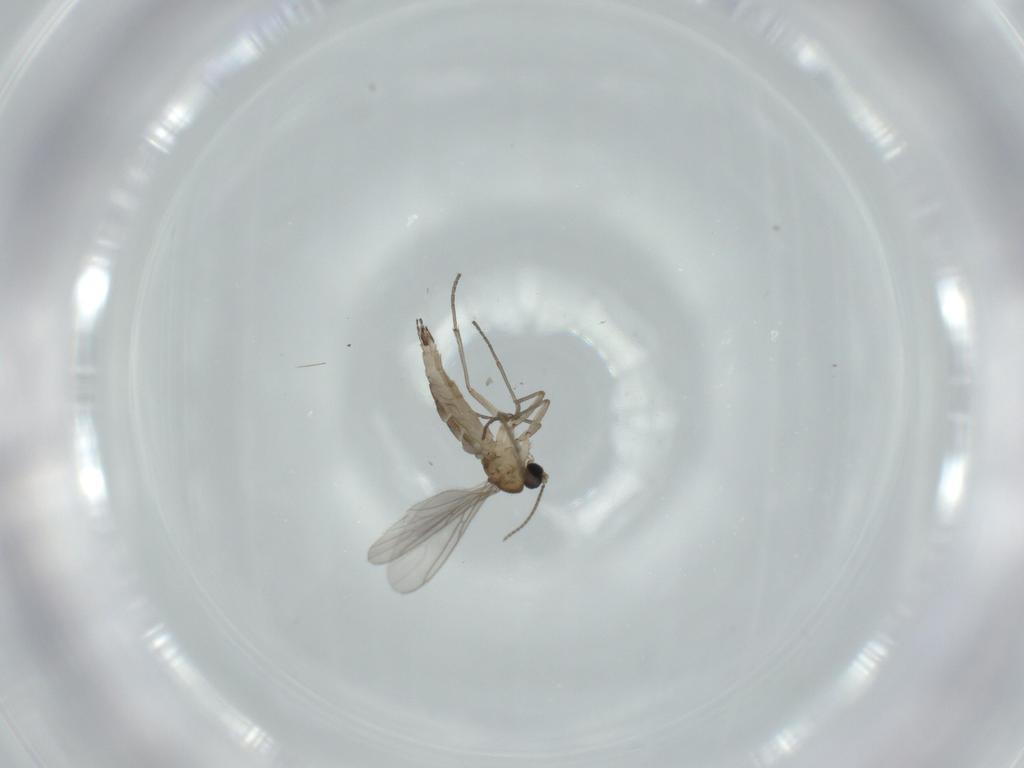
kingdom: Animalia
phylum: Arthropoda
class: Insecta
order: Diptera
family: Sciaridae
